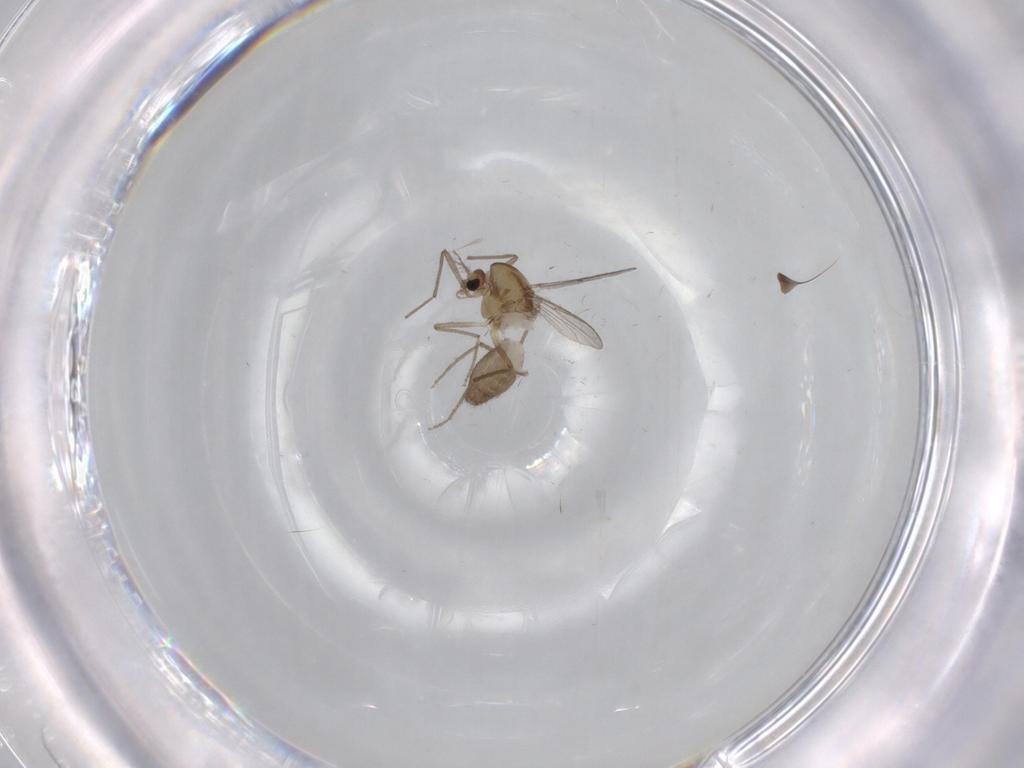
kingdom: Animalia
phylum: Arthropoda
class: Insecta
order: Diptera
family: Chironomidae
